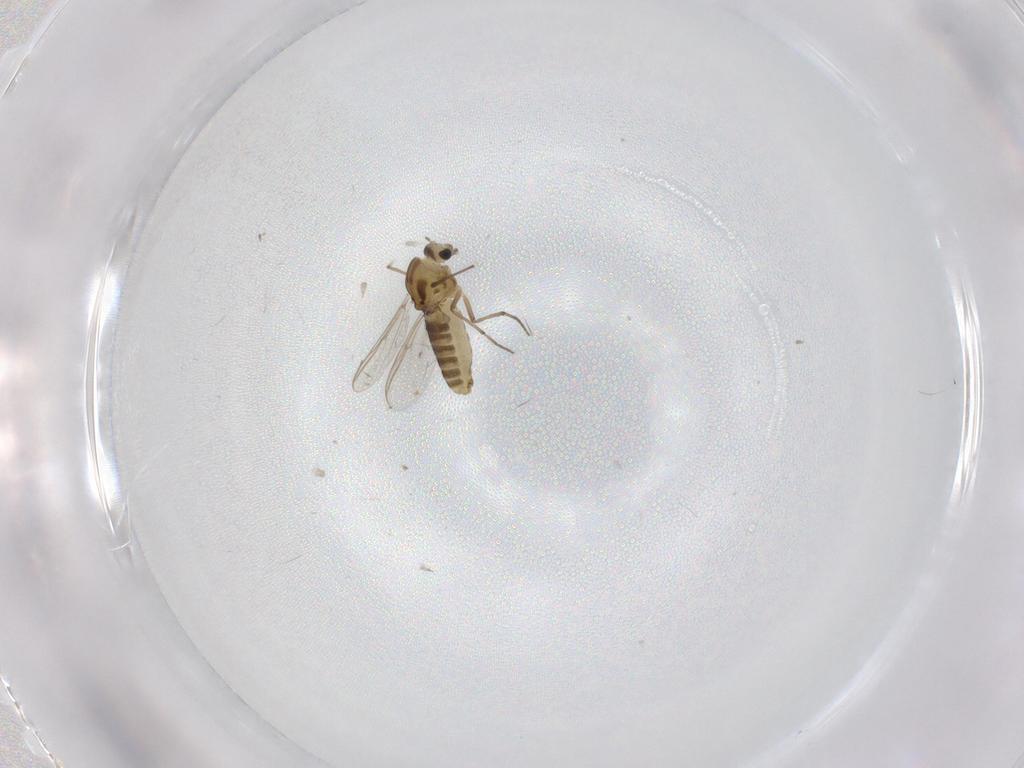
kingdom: Animalia
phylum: Arthropoda
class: Insecta
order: Diptera
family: Chironomidae
